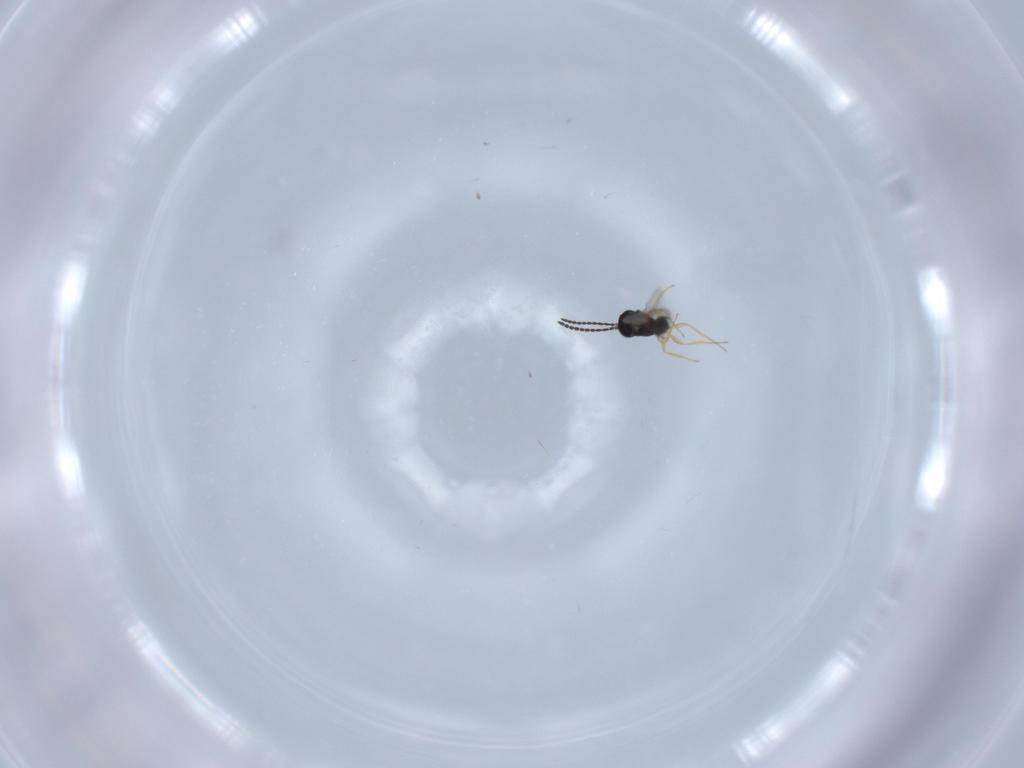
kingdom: Animalia
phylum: Arthropoda
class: Insecta
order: Hymenoptera
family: Scelionidae
